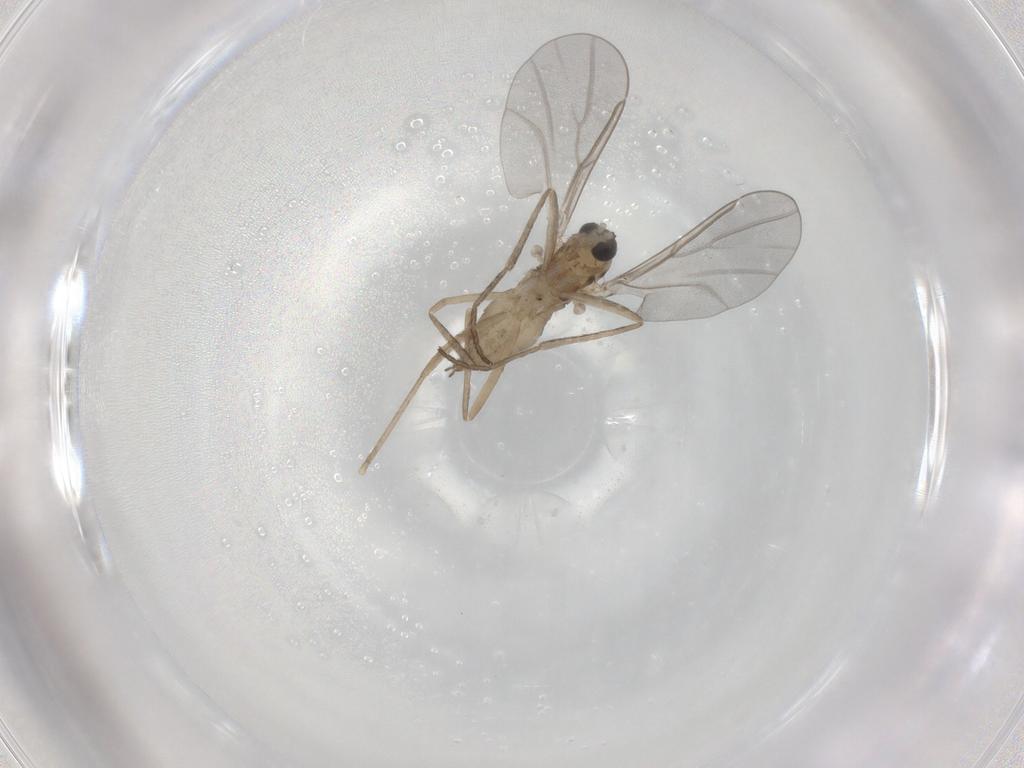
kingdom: Animalia
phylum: Arthropoda
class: Insecta
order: Diptera
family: Cecidomyiidae
